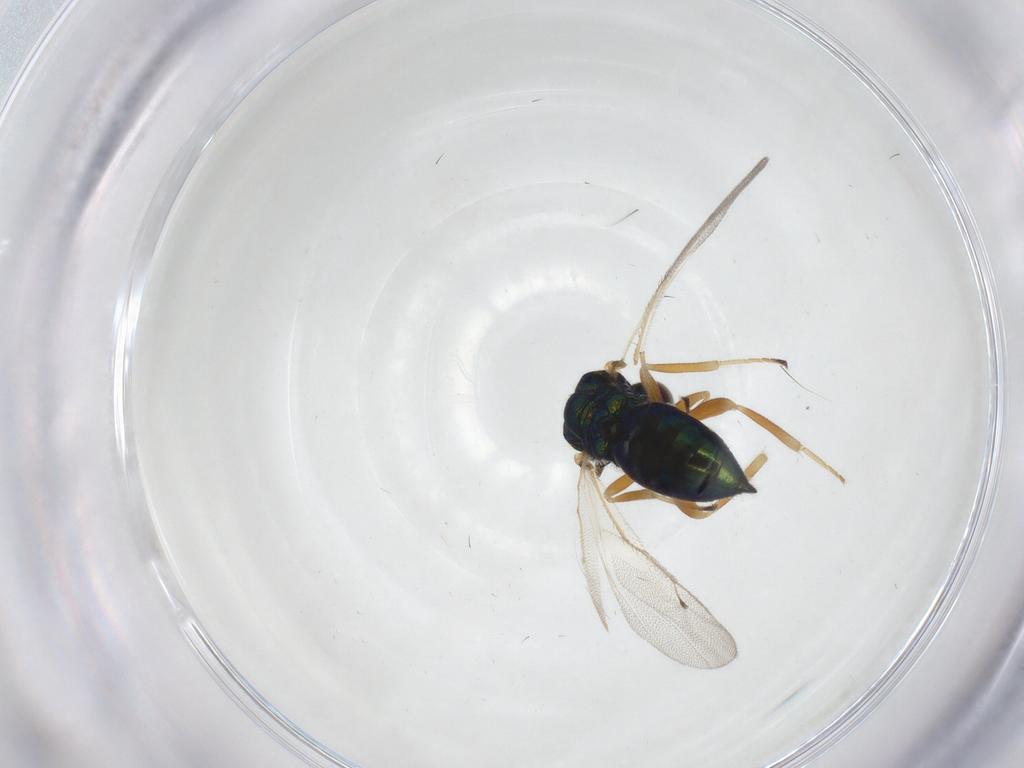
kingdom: Animalia
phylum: Arthropoda
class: Insecta
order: Hymenoptera
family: Pteromalidae
